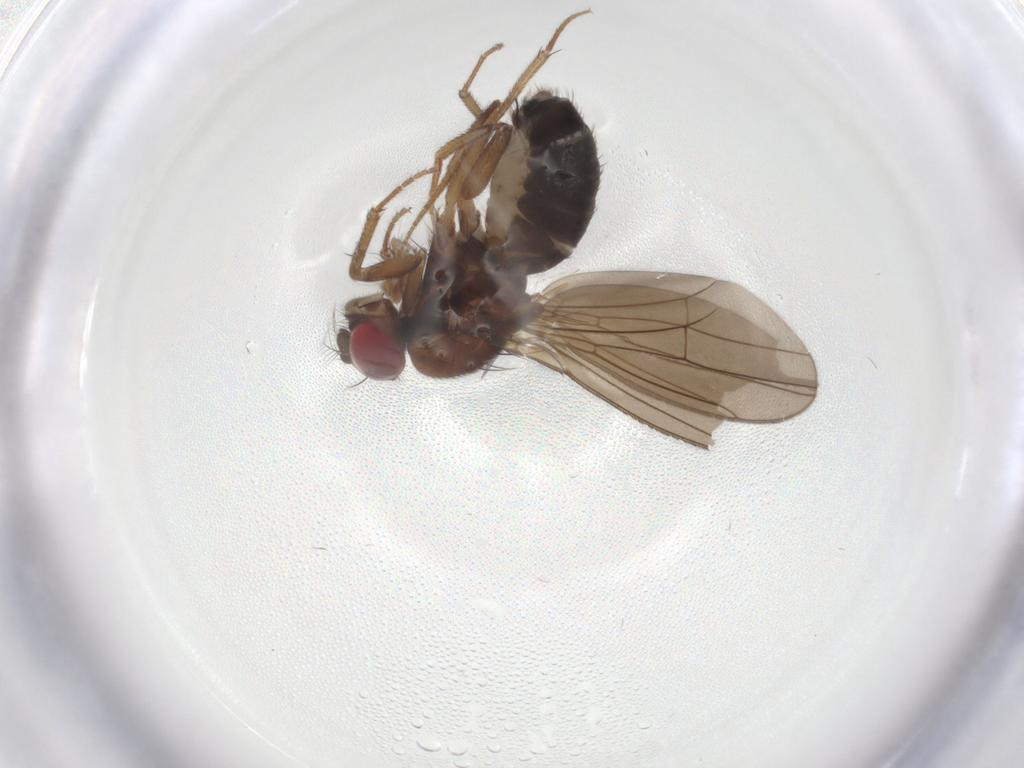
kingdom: Animalia
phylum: Arthropoda
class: Insecta
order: Diptera
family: Drosophilidae
